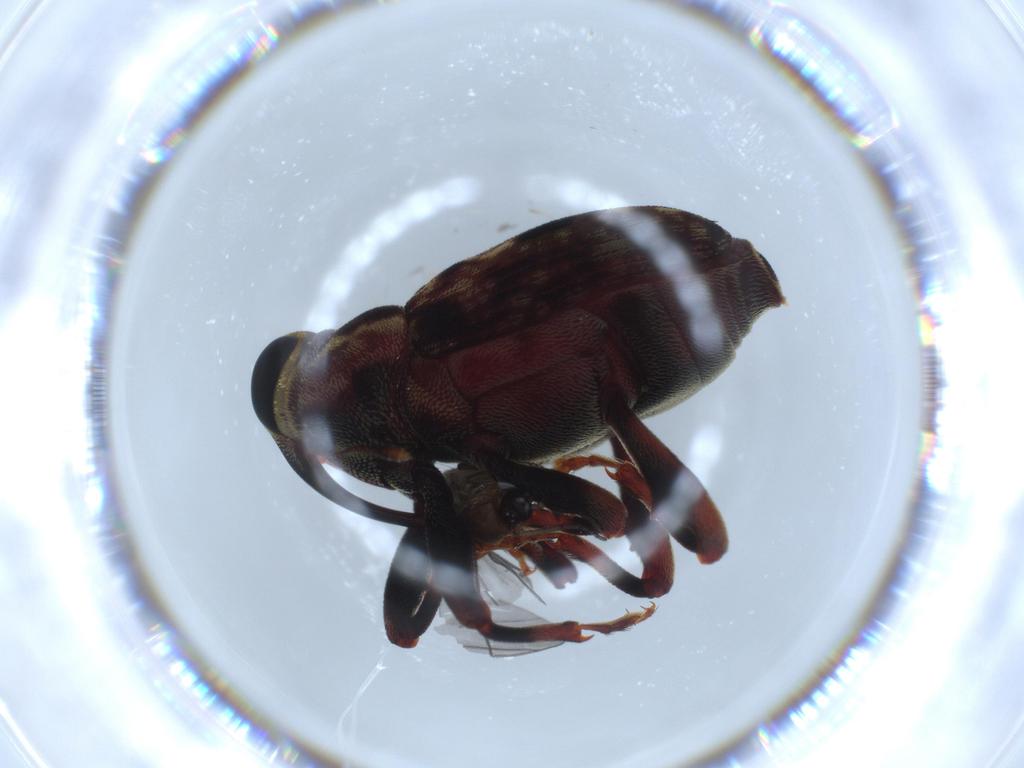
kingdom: Animalia
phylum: Arthropoda
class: Insecta
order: Coleoptera
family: Curculionidae
